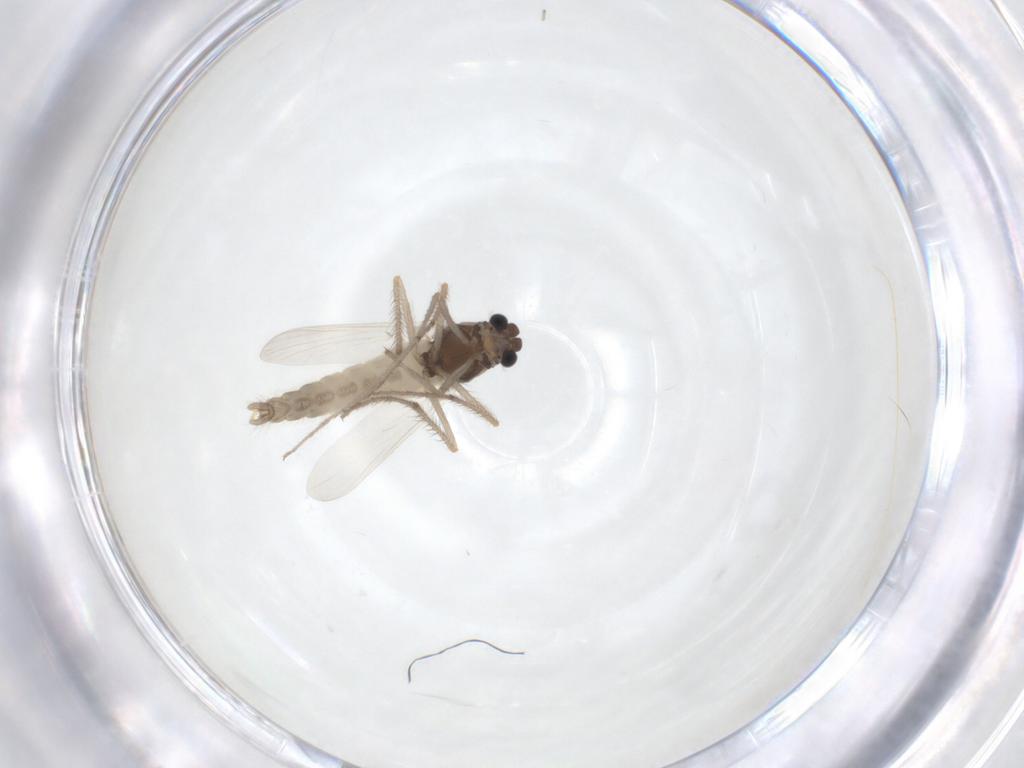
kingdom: Animalia
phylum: Arthropoda
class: Insecta
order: Diptera
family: Chironomidae
